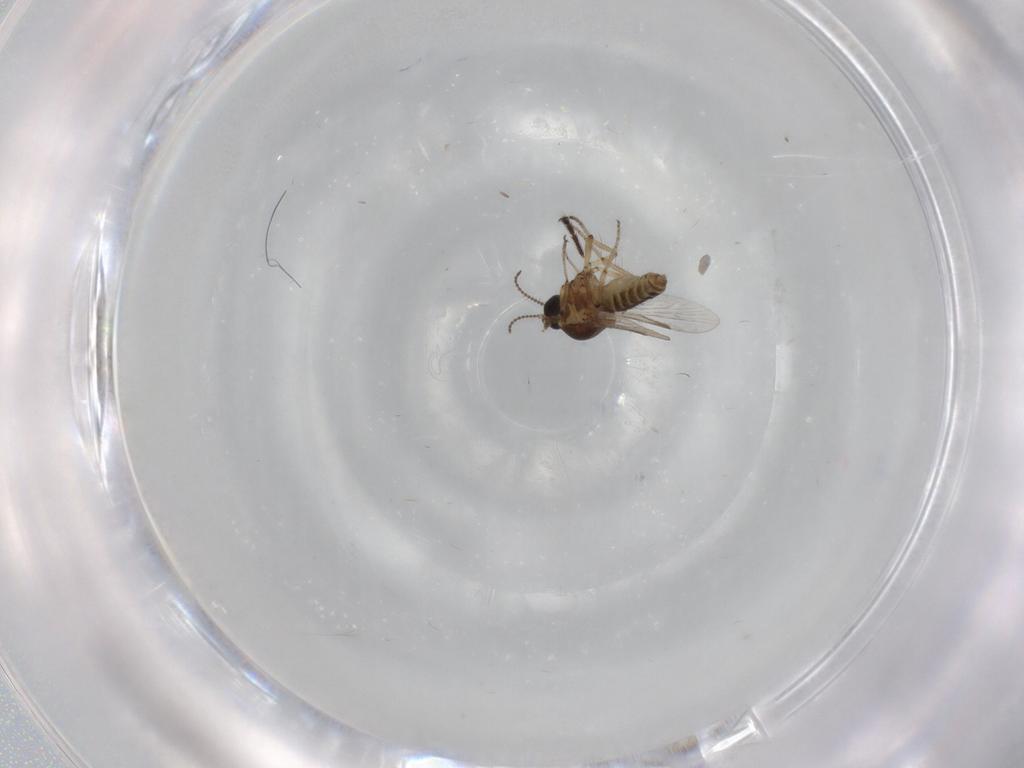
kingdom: Animalia
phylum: Arthropoda
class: Insecta
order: Diptera
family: Ceratopogonidae
